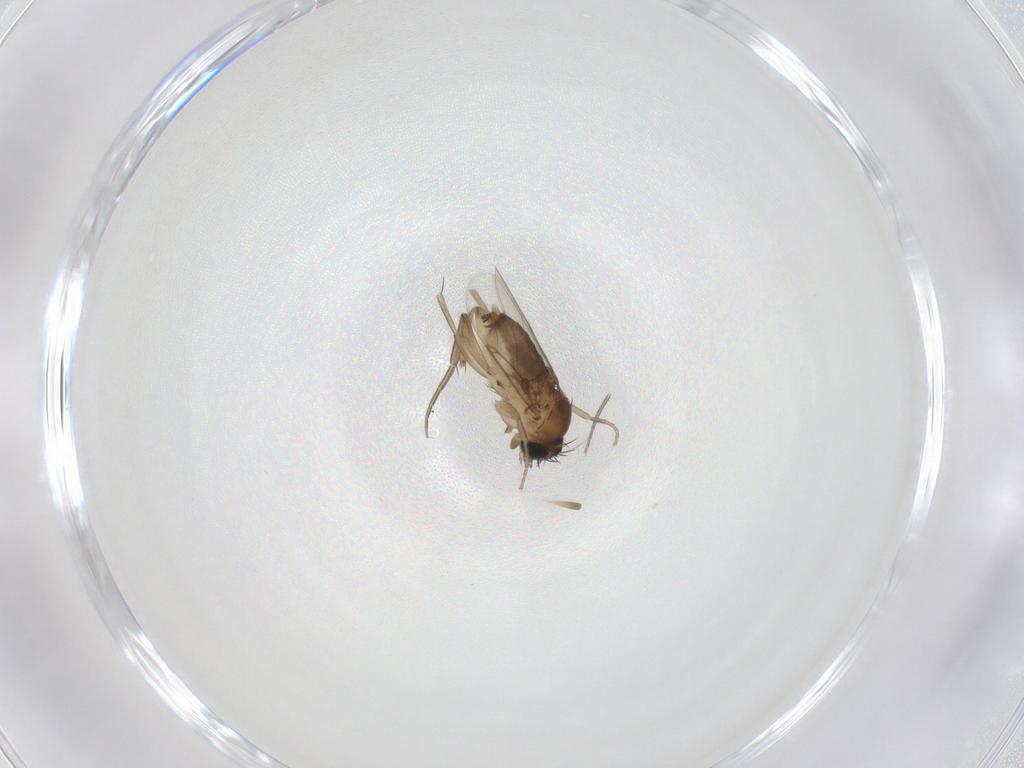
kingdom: Animalia
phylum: Arthropoda
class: Insecta
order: Diptera
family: Phoridae
